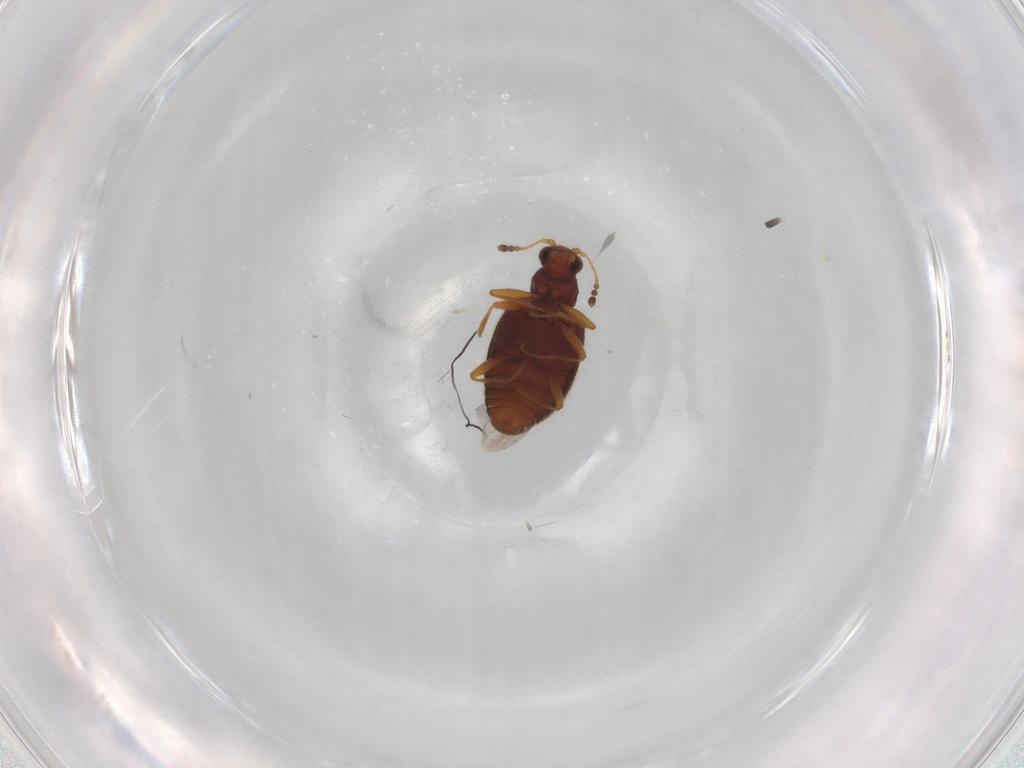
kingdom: Animalia
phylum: Arthropoda
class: Insecta
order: Coleoptera
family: Latridiidae
